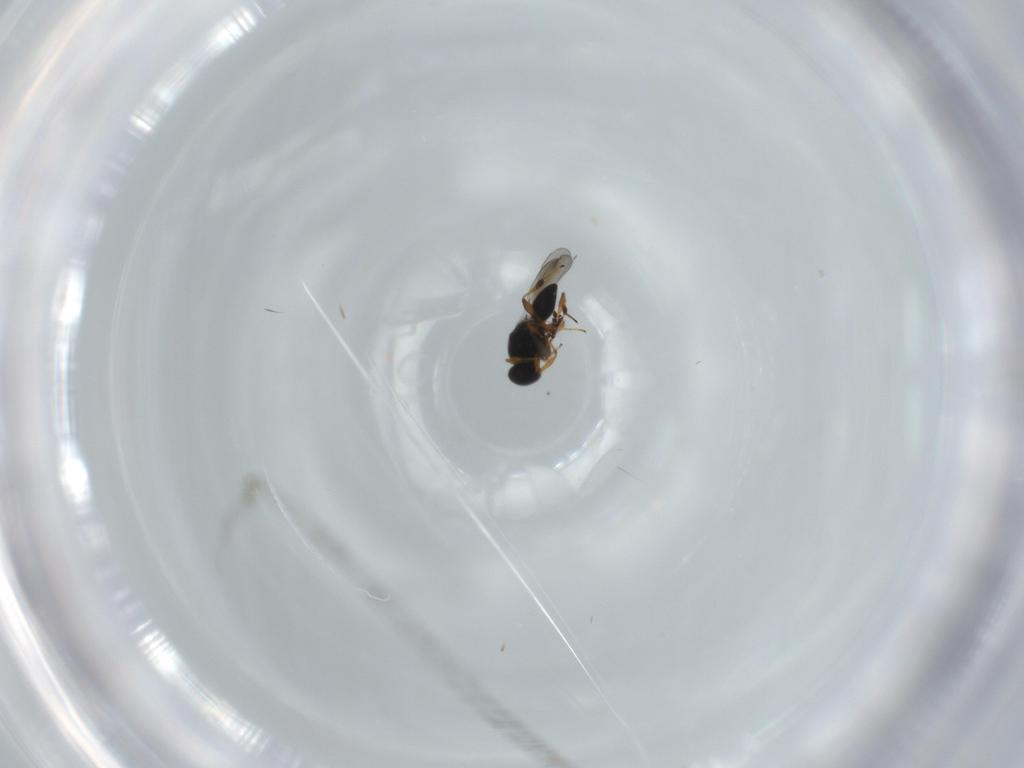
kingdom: Animalia
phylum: Arthropoda
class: Insecta
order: Hymenoptera
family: Platygastridae
